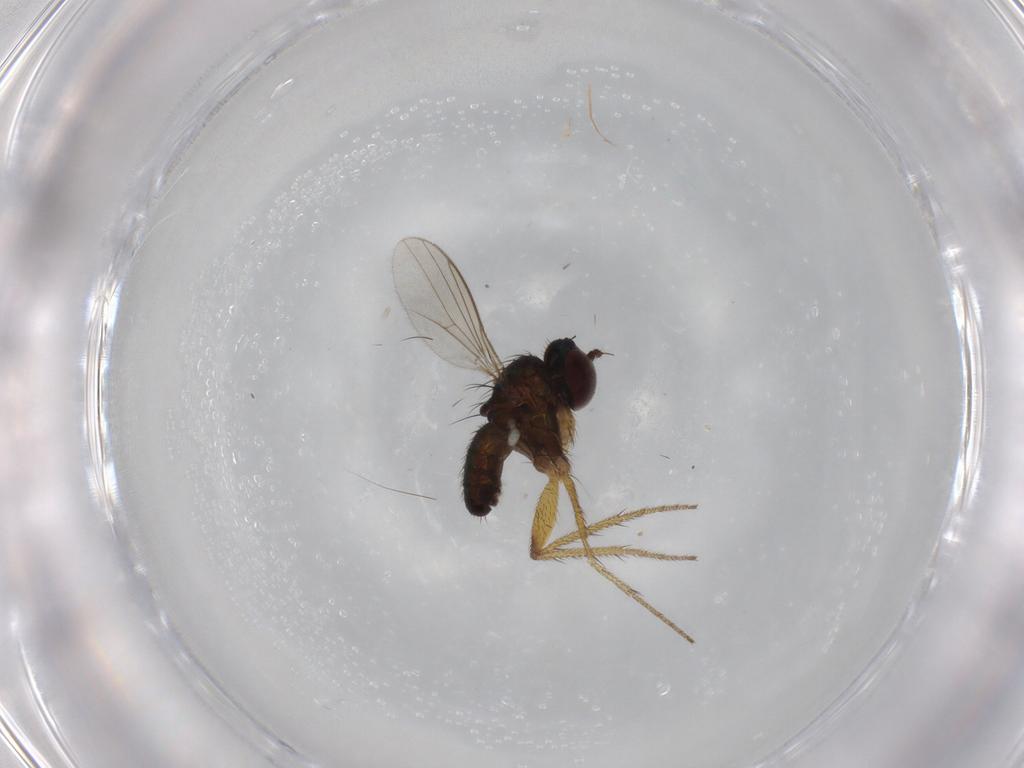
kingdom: Animalia
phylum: Arthropoda
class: Insecta
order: Diptera
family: Dolichopodidae
